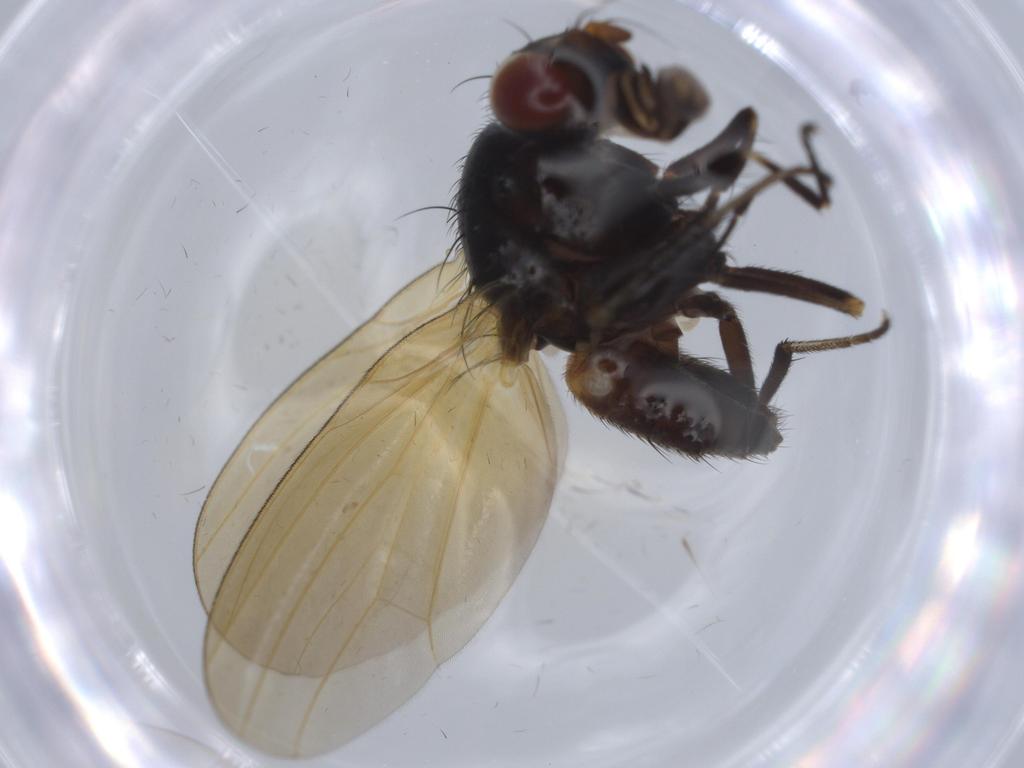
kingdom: Animalia
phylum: Arthropoda
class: Insecta
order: Diptera
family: Lauxaniidae
